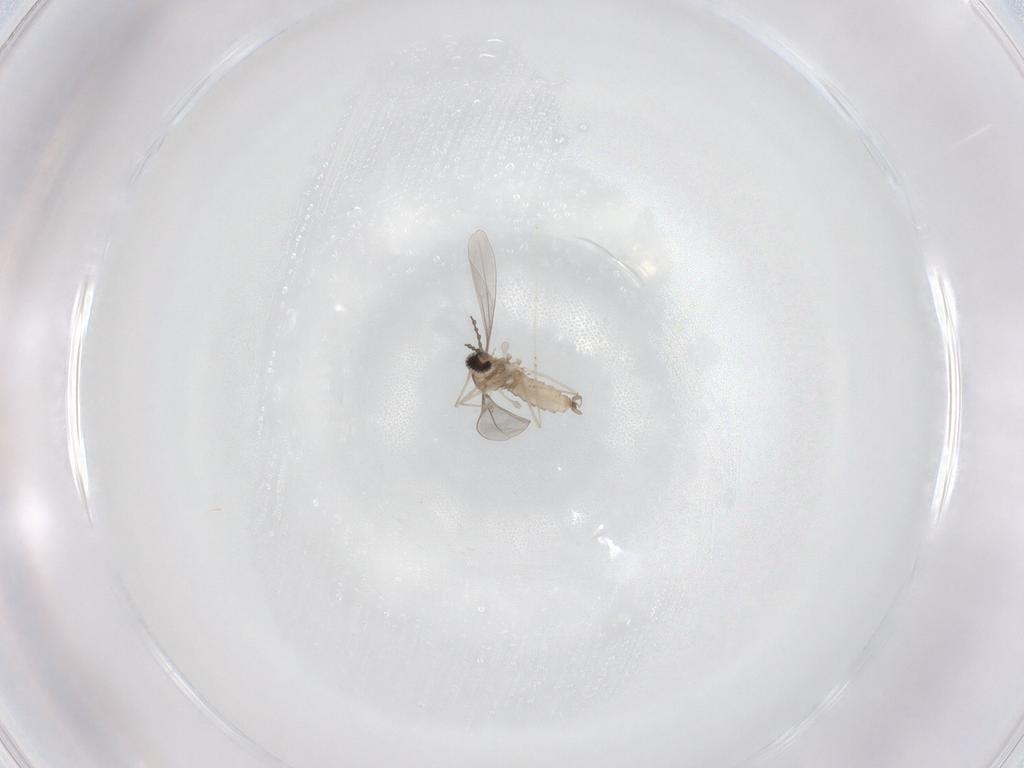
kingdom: Animalia
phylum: Arthropoda
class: Insecta
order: Diptera
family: Cecidomyiidae
